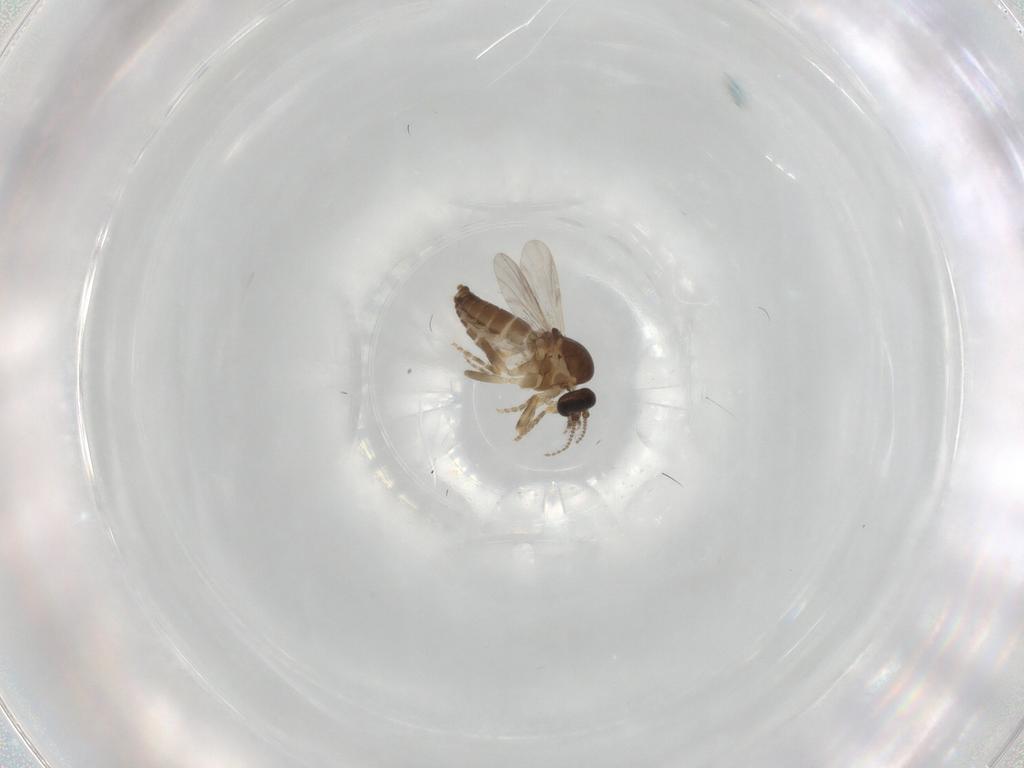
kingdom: Animalia
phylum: Arthropoda
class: Insecta
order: Diptera
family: Ceratopogonidae
